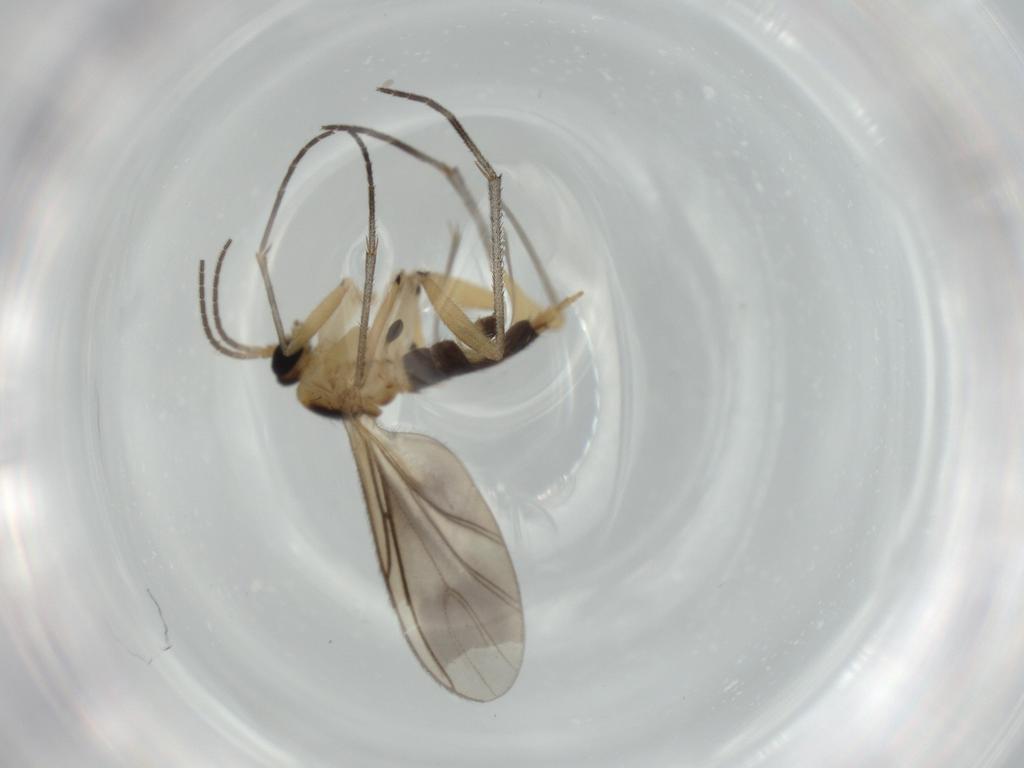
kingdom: Animalia
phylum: Arthropoda
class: Insecta
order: Diptera
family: Sciaridae
